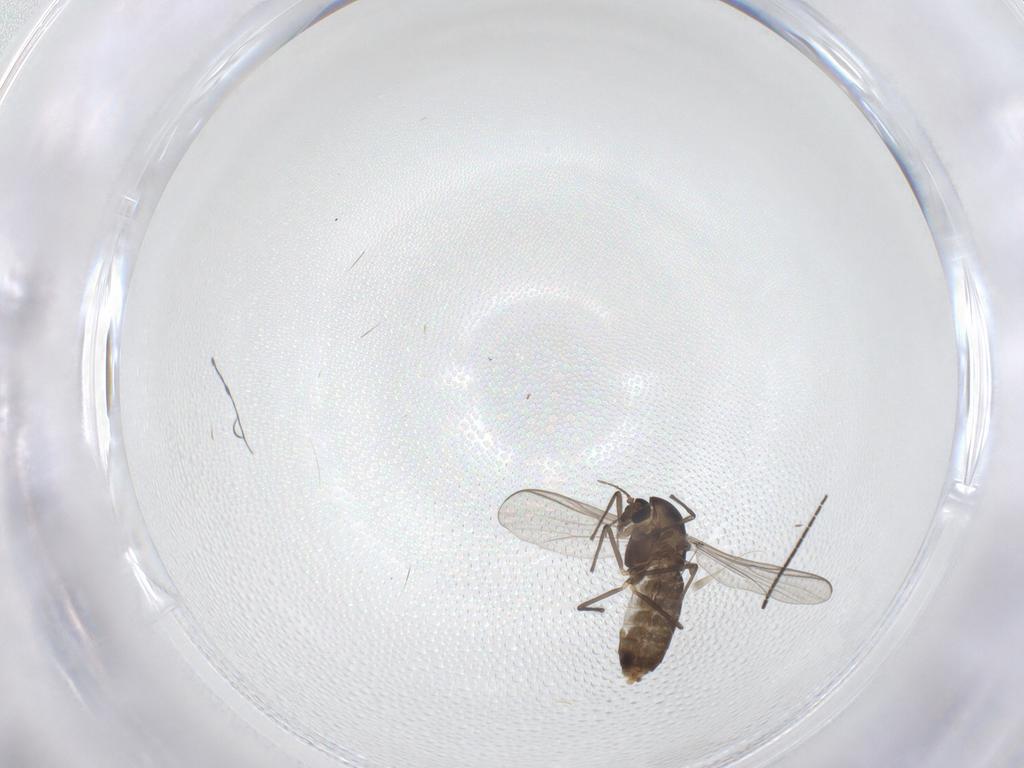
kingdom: Animalia
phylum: Arthropoda
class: Insecta
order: Diptera
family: Chironomidae
